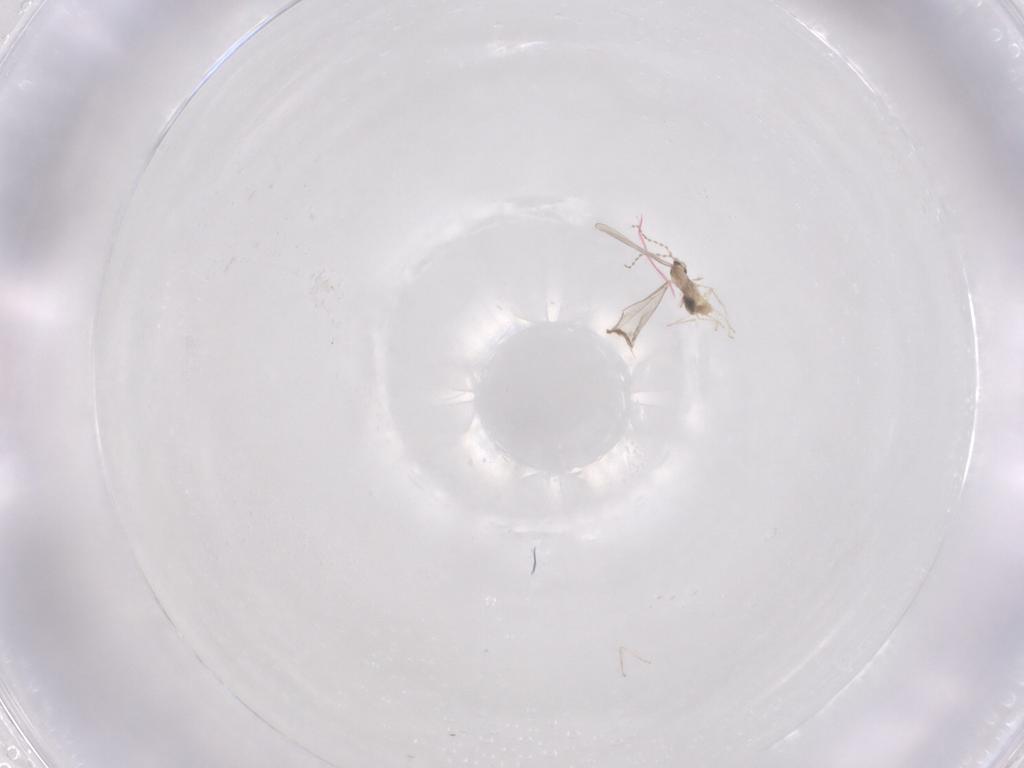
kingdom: Animalia
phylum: Arthropoda
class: Insecta
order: Diptera
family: Cecidomyiidae
